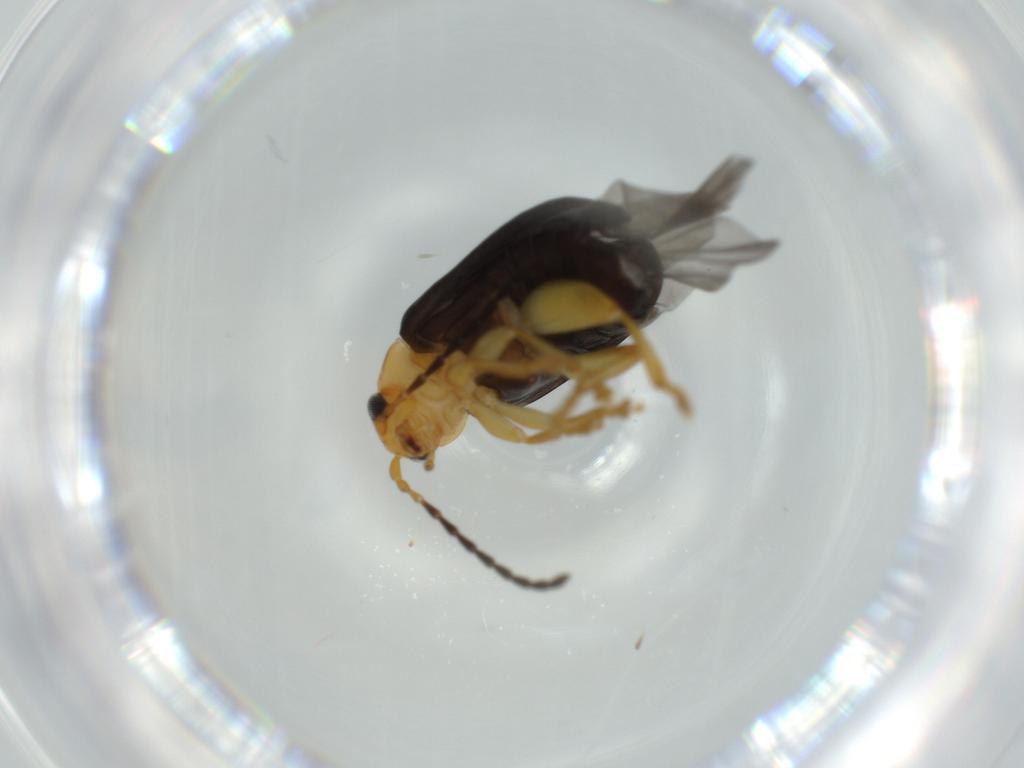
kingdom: Animalia
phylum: Arthropoda
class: Insecta
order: Coleoptera
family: Chrysomelidae
